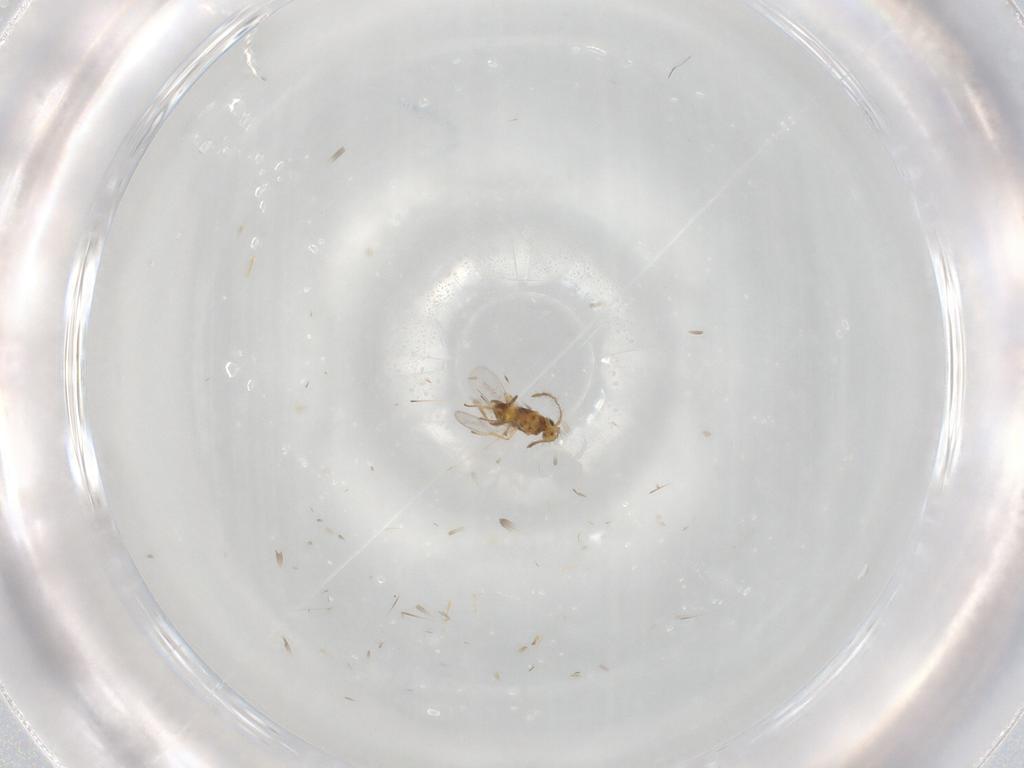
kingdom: Animalia
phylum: Arthropoda
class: Insecta
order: Hymenoptera
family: Encyrtidae
